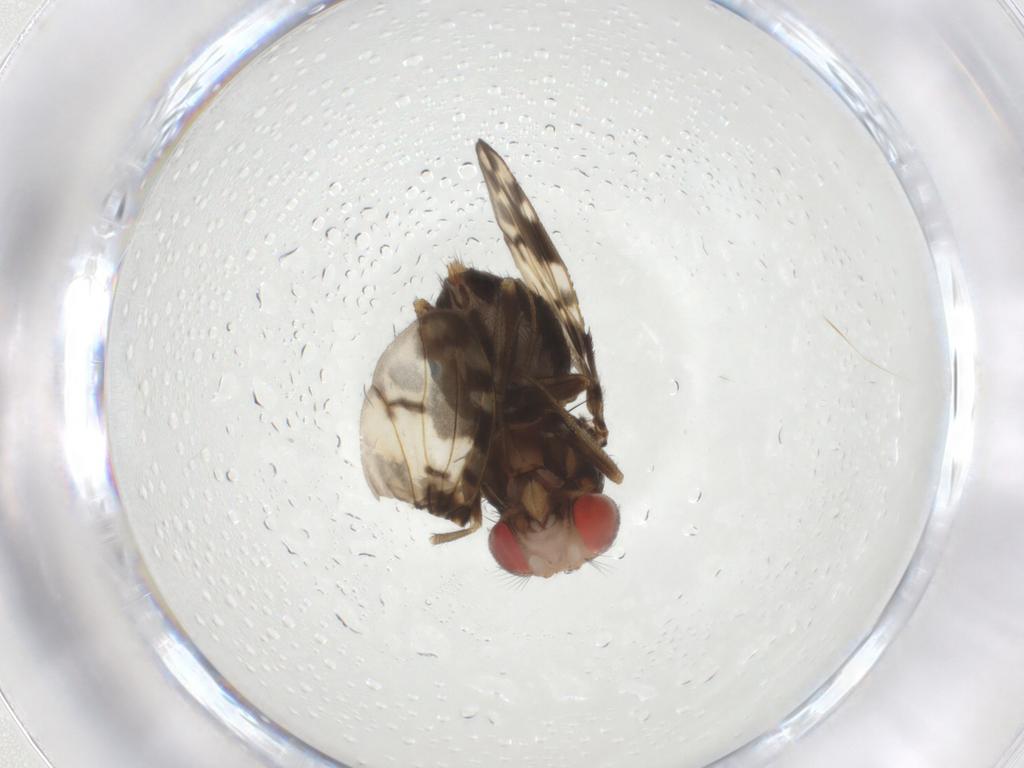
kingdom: Animalia
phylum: Arthropoda
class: Insecta
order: Diptera
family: Drosophilidae
